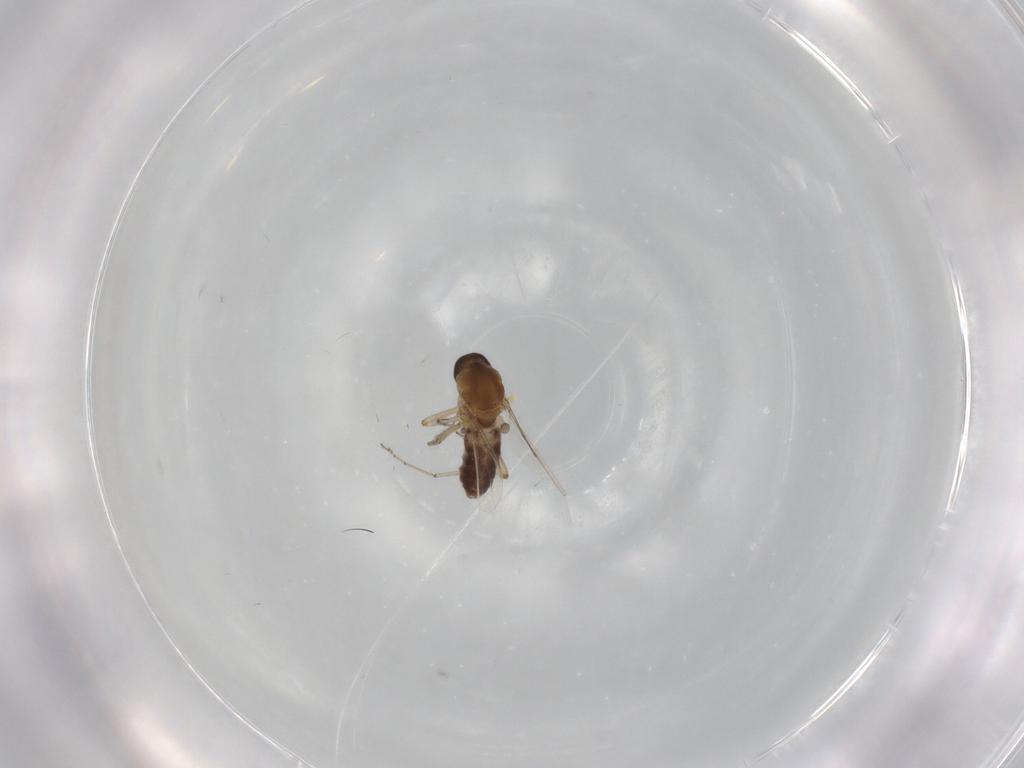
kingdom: Animalia
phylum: Arthropoda
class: Insecta
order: Diptera
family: Ceratopogonidae
